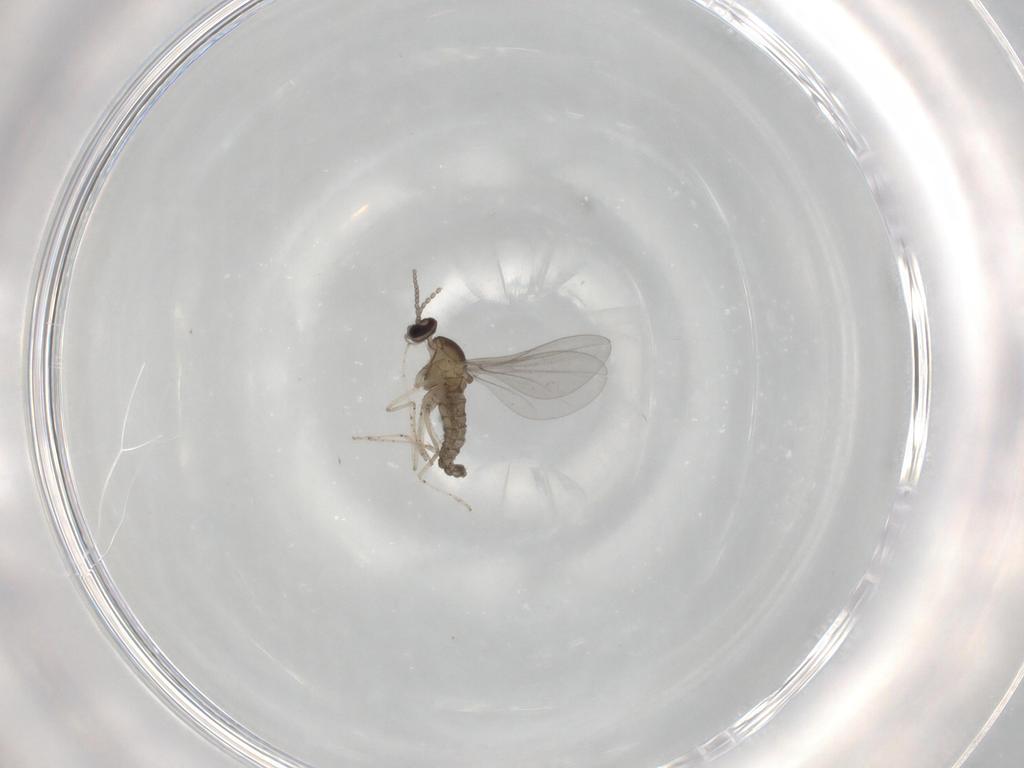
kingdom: Animalia
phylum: Arthropoda
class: Insecta
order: Diptera
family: Cecidomyiidae
